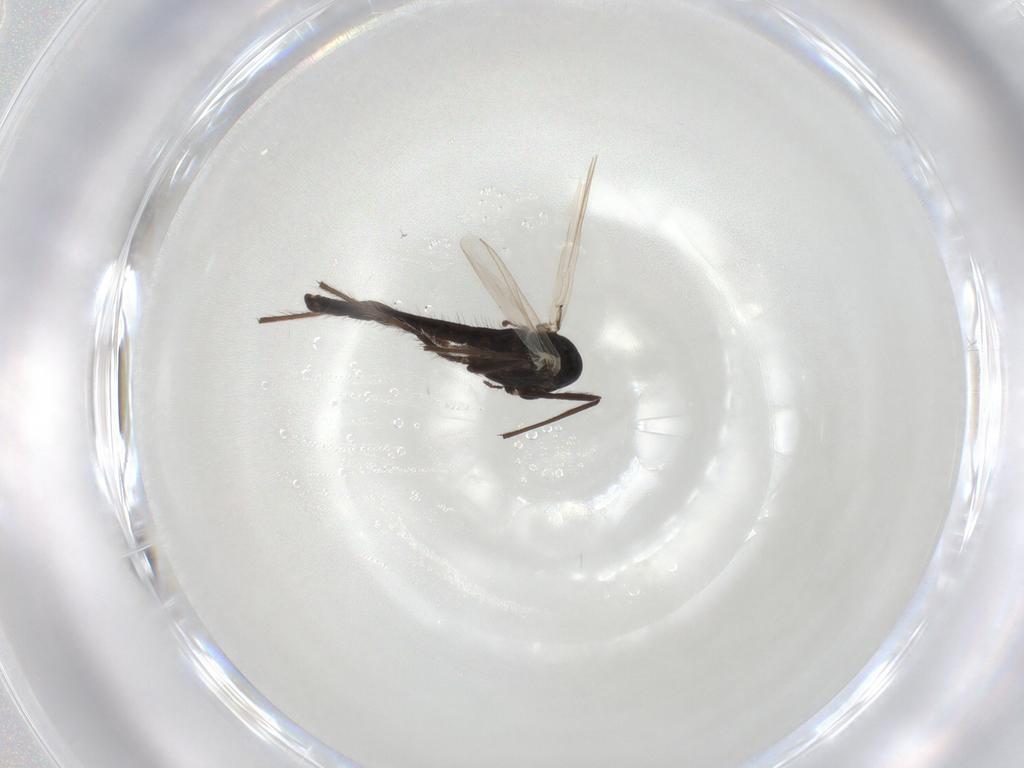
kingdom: Animalia
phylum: Arthropoda
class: Insecta
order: Diptera
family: Chironomidae
